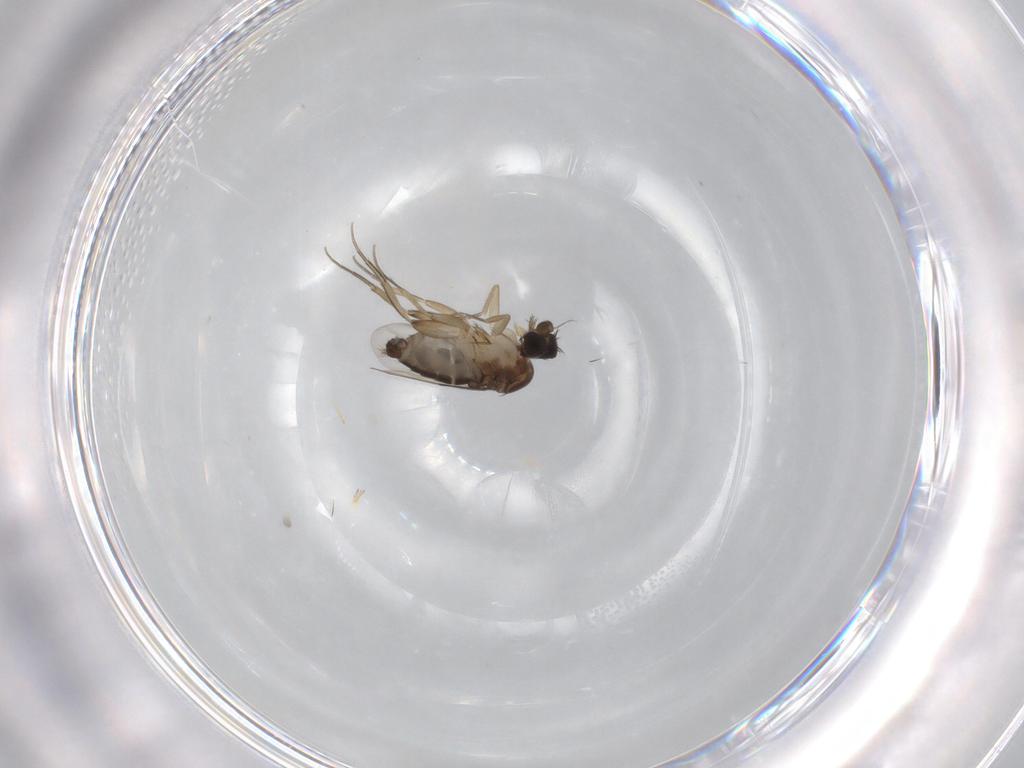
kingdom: Animalia
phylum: Arthropoda
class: Insecta
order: Diptera
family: Phoridae
